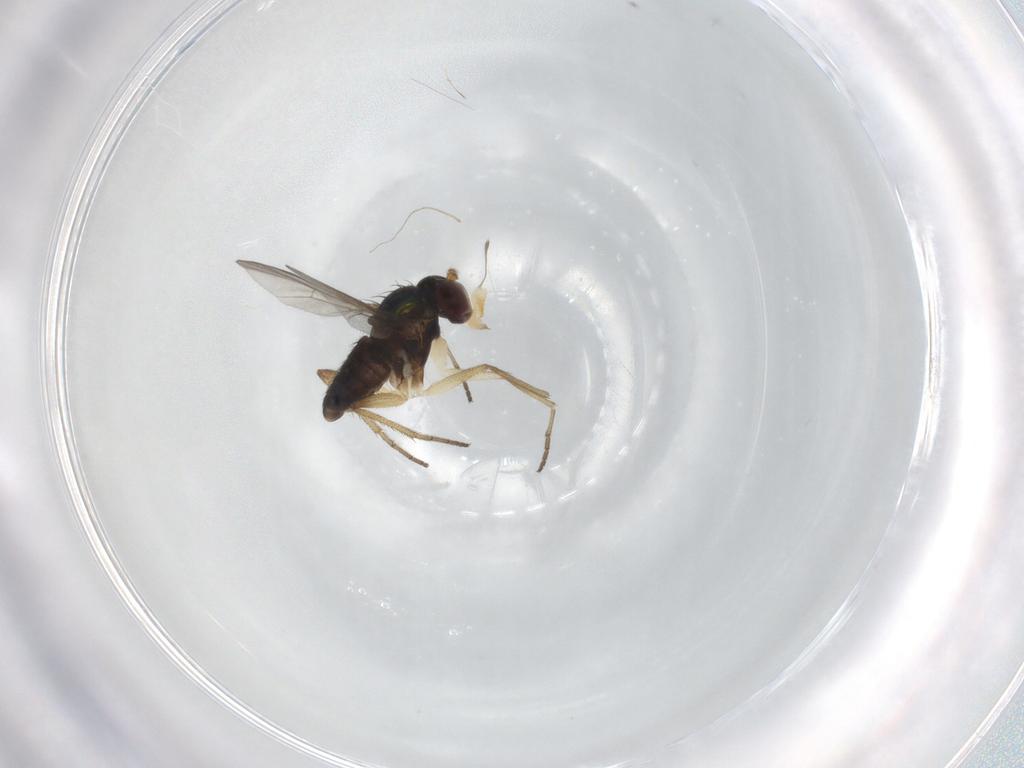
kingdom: Animalia
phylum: Arthropoda
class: Insecta
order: Diptera
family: Dolichopodidae
